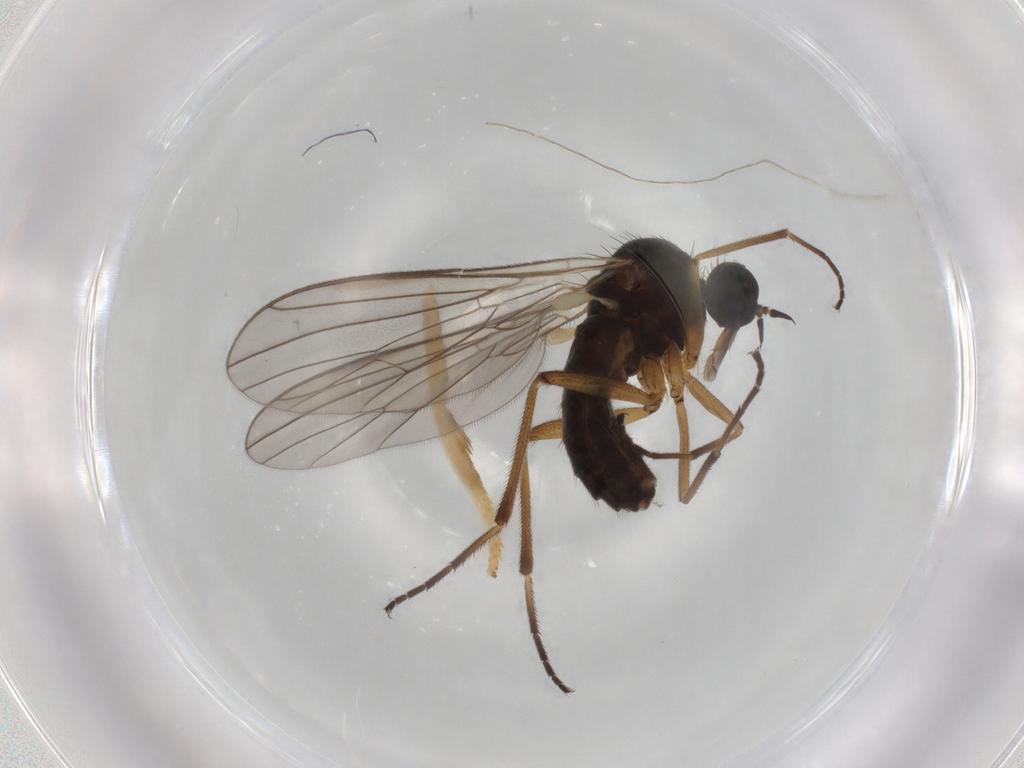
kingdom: Animalia
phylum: Arthropoda
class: Insecta
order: Diptera
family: Empididae
